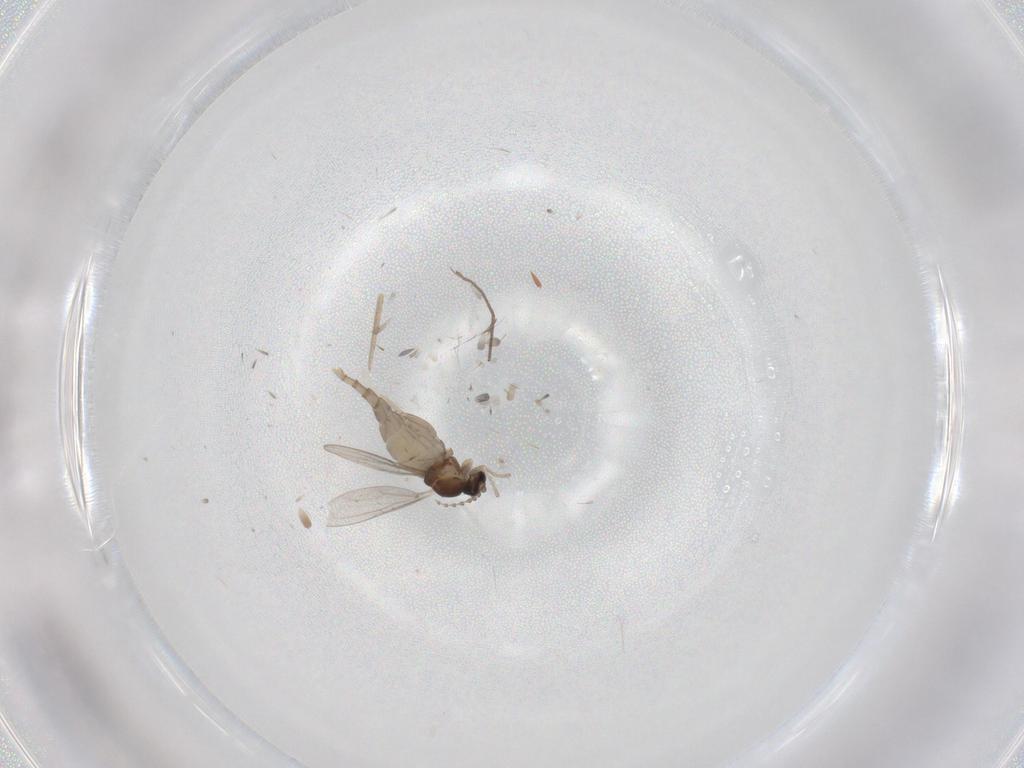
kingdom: Animalia
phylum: Arthropoda
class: Insecta
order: Diptera
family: Chironomidae
